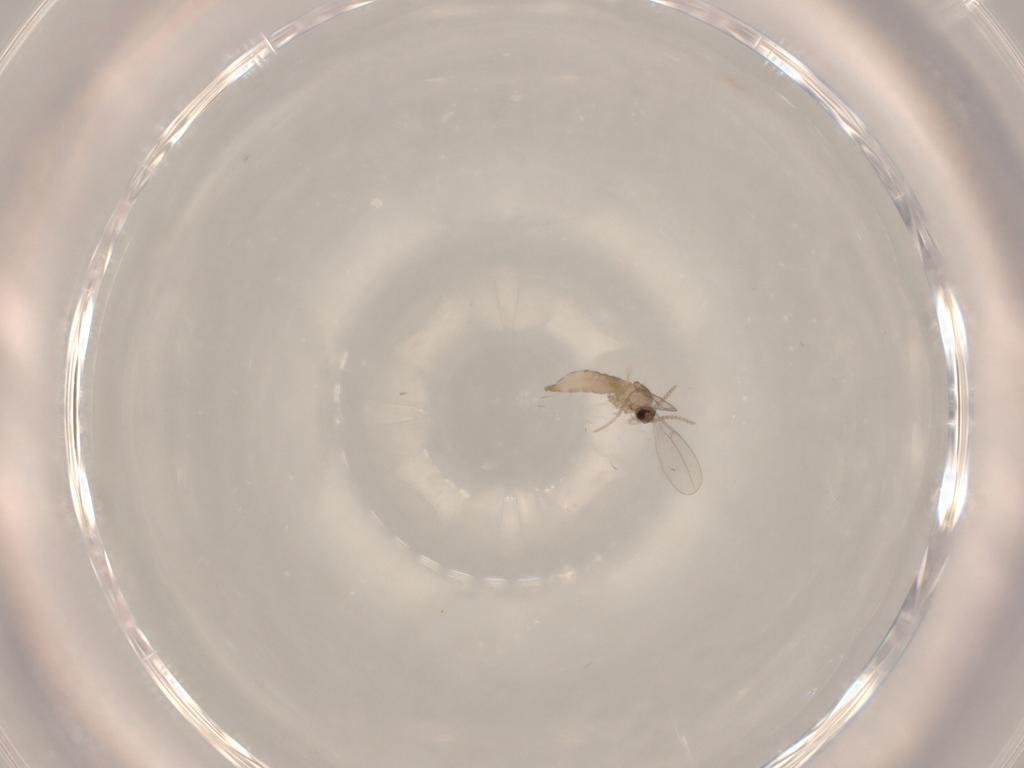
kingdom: Animalia
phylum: Arthropoda
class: Insecta
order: Diptera
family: Cecidomyiidae
